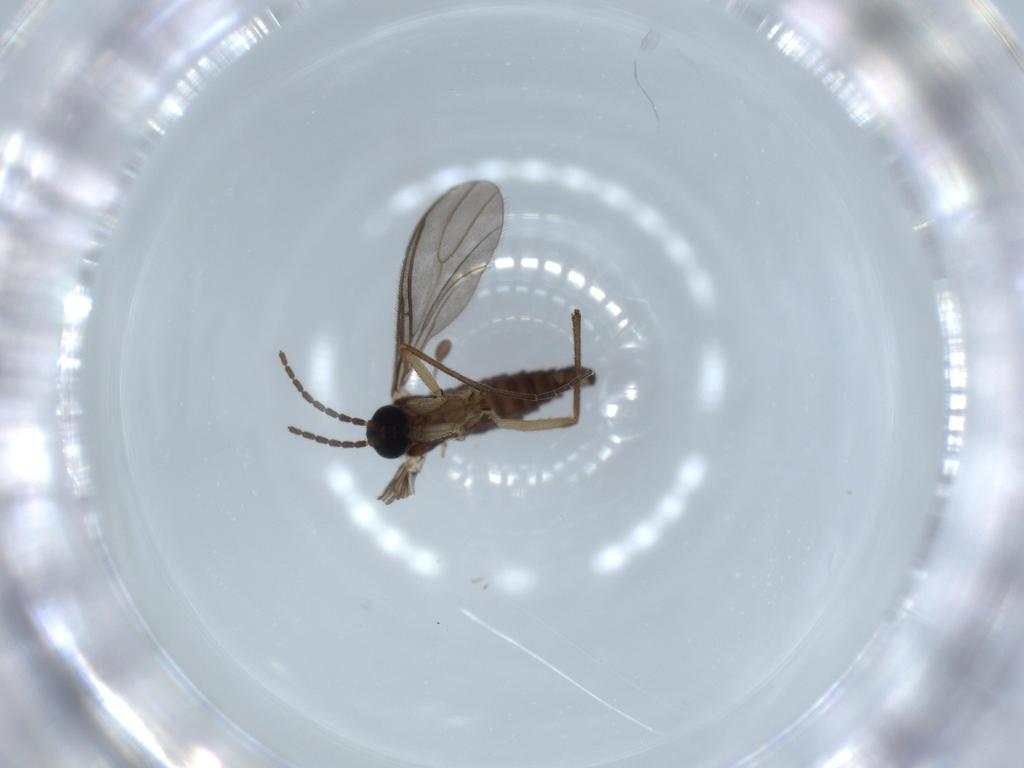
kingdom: Animalia
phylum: Arthropoda
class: Insecta
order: Diptera
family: Sciaridae
